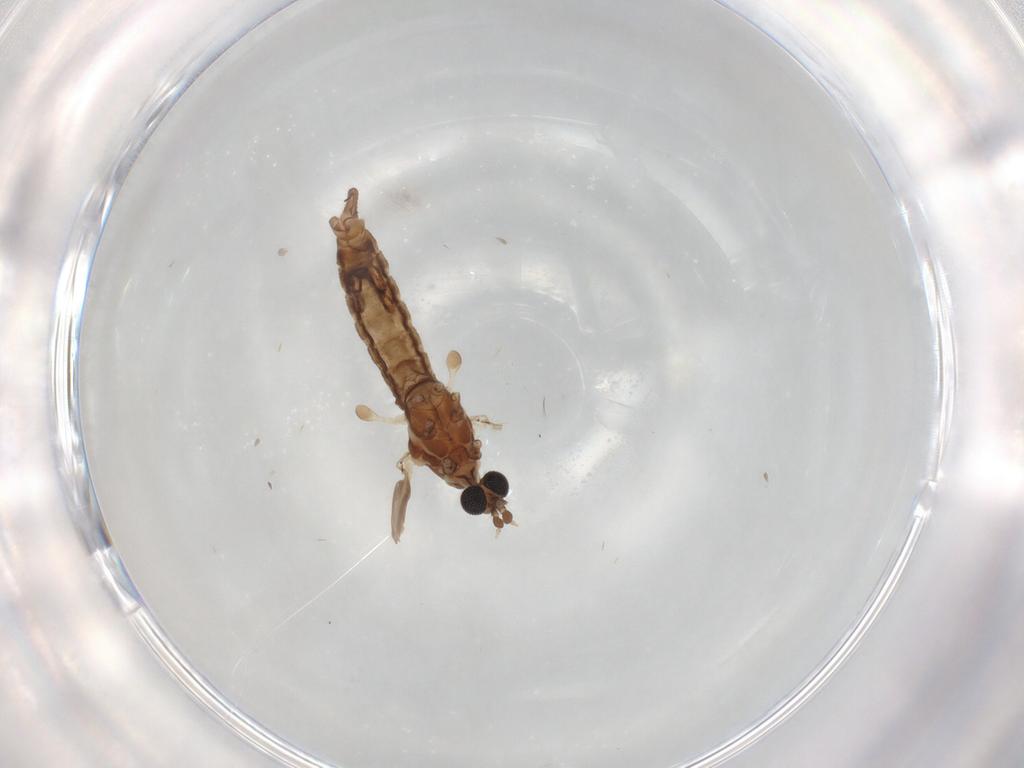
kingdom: Animalia
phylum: Arthropoda
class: Insecta
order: Diptera
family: Limoniidae
